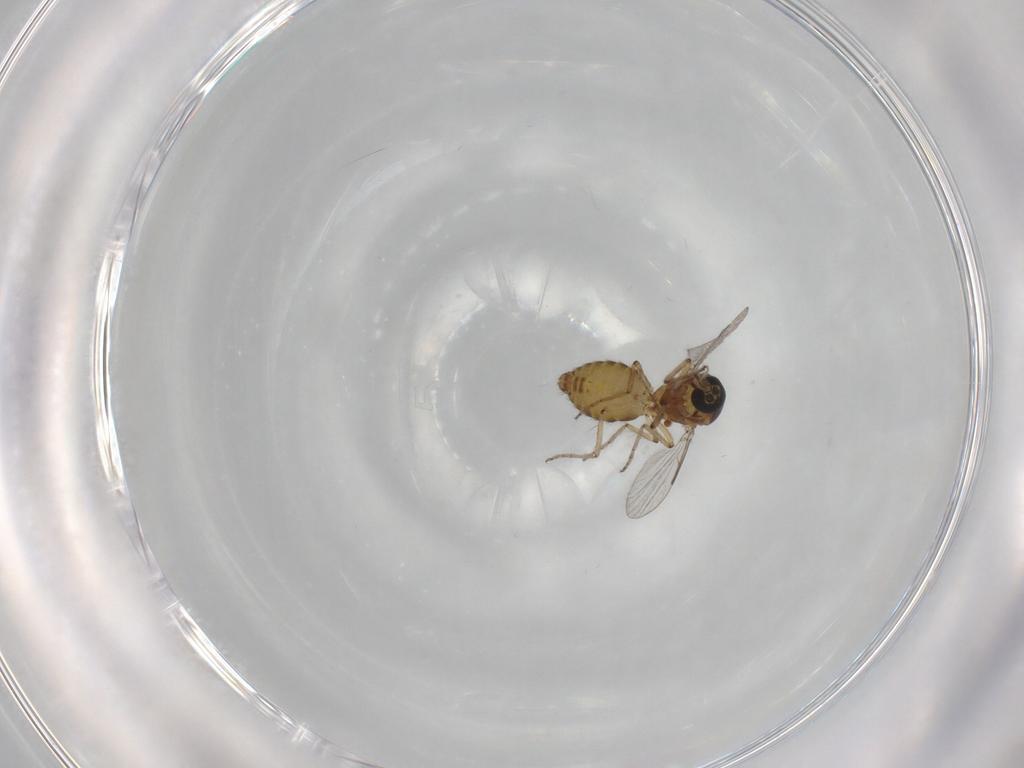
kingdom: Animalia
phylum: Arthropoda
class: Insecta
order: Diptera
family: Ceratopogonidae
